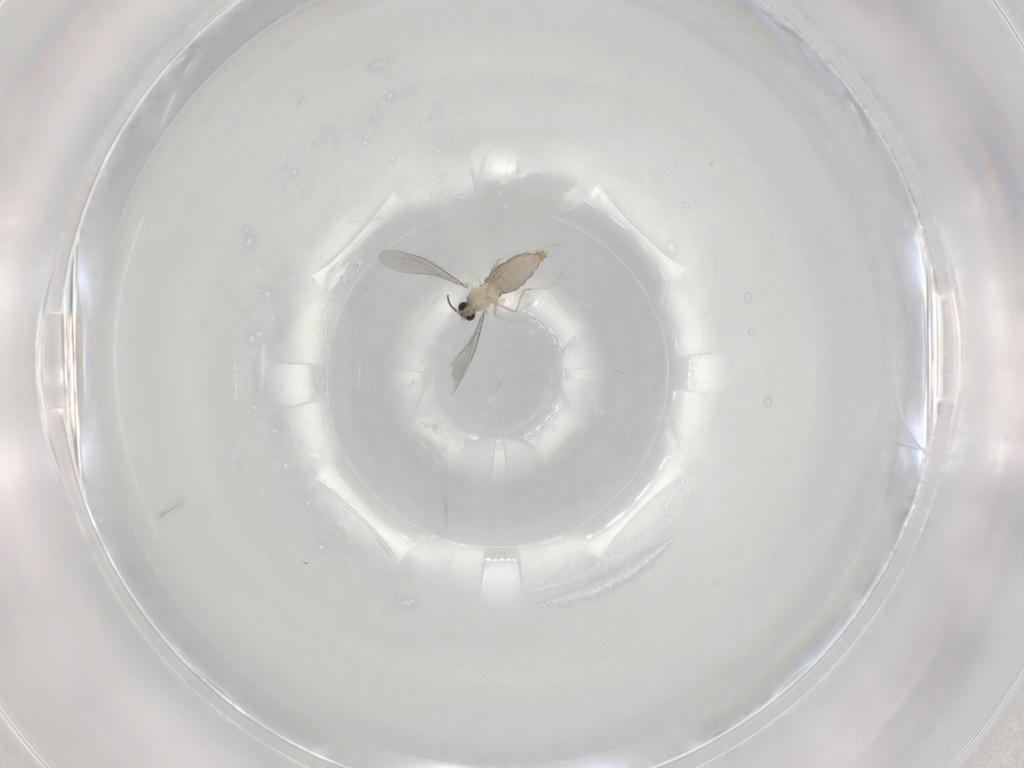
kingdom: Animalia
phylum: Arthropoda
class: Insecta
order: Diptera
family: Cecidomyiidae
